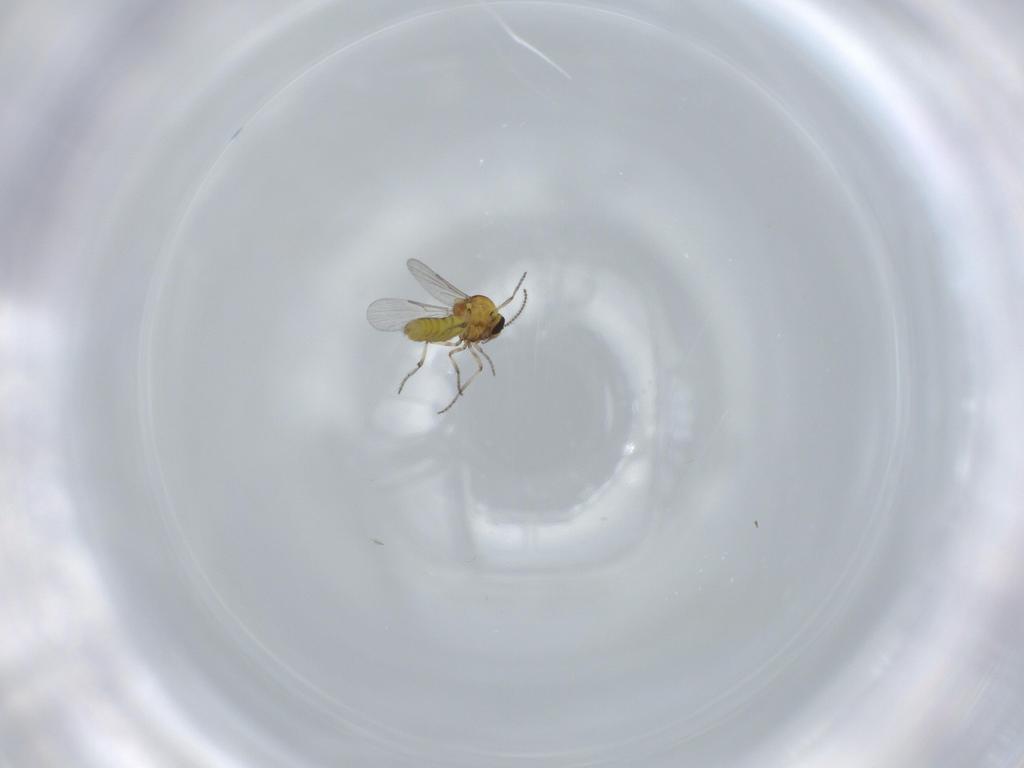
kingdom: Animalia
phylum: Arthropoda
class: Insecta
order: Diptera
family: Ceratopogonidae
